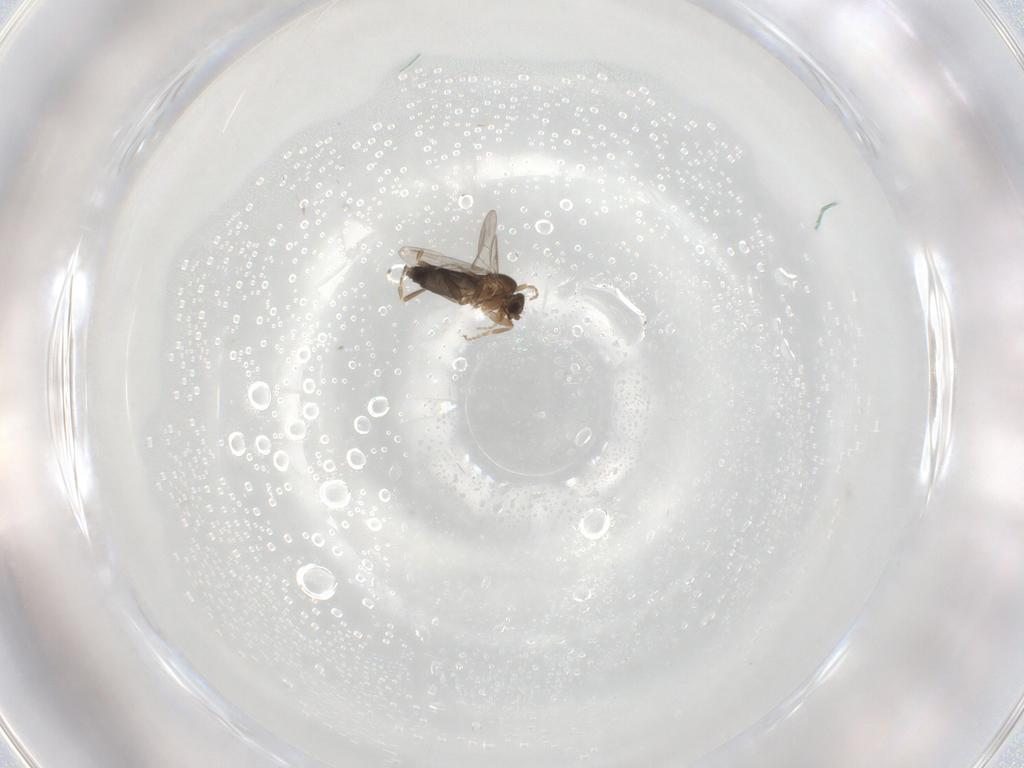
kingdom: Animalia
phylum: Arthropoda
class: Insecta
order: Diptera
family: Phoridae
